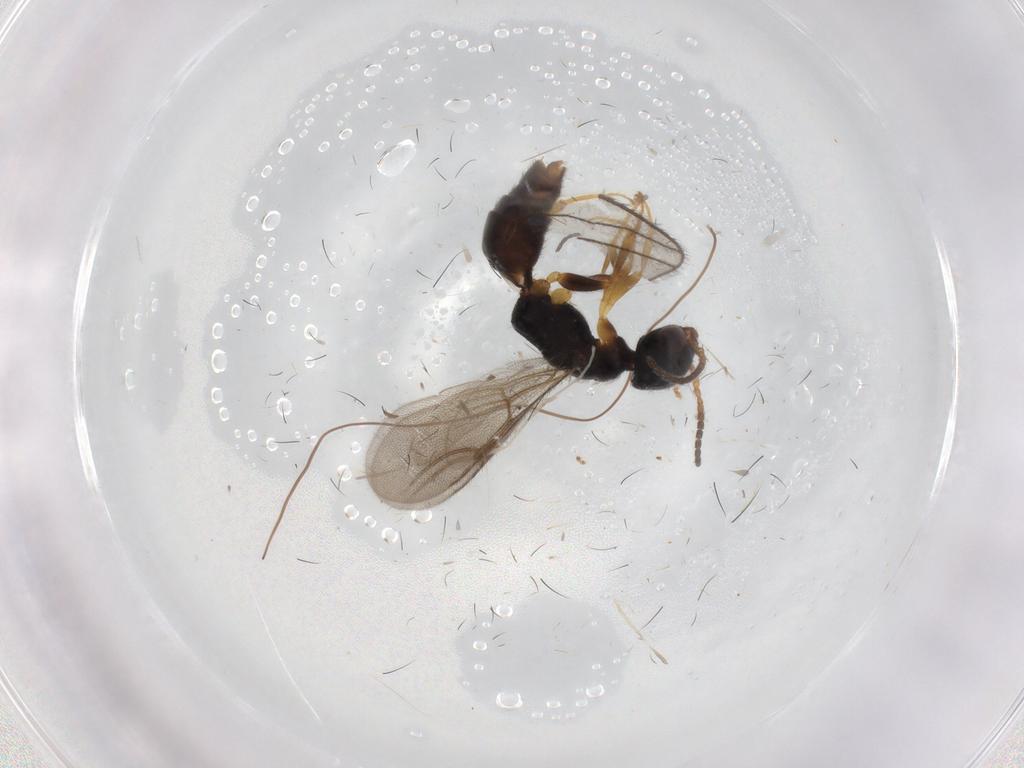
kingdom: Animalia
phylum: Arthropoda
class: Insecta
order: Hymenoptera
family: Bethylidae
